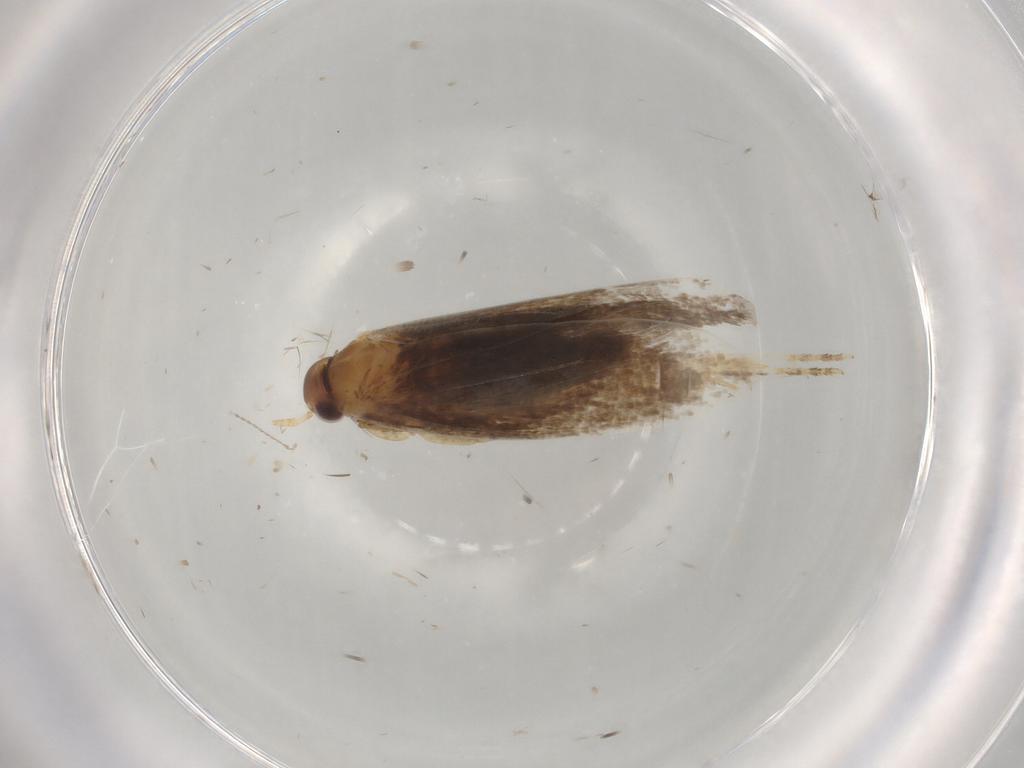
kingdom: Animalia
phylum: Arthropoda
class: Insecta
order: Lepidoptera
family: Oecophoridae
